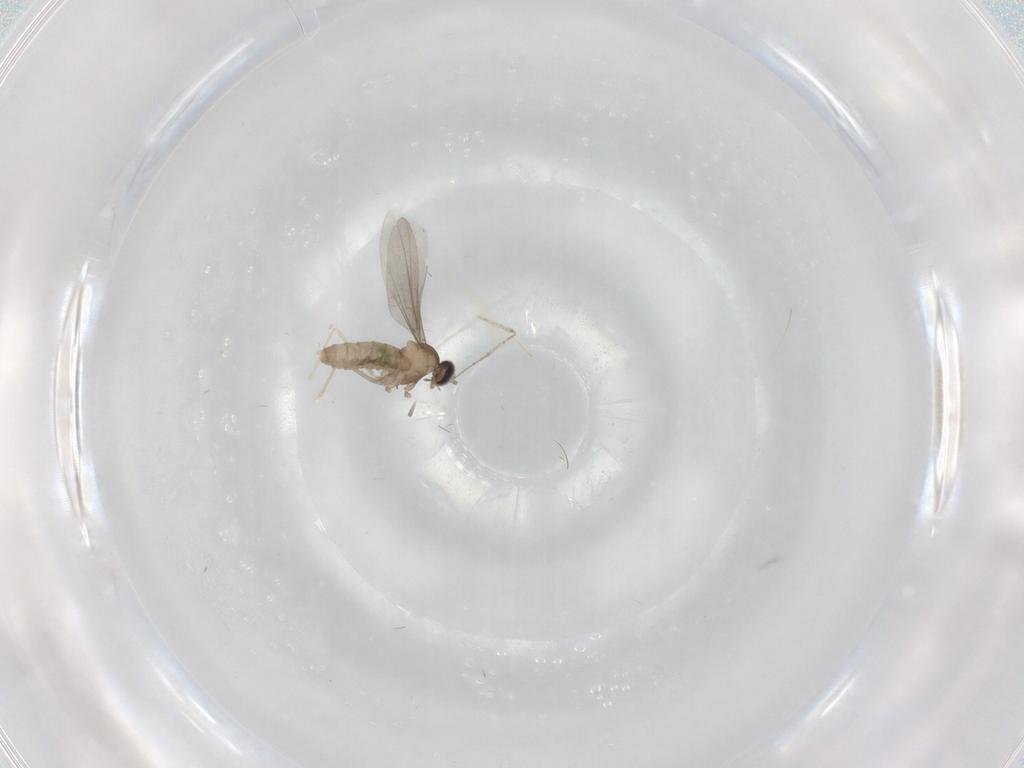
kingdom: Animalia
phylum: Arthropoda
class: Insecta
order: Diptera
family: Cecidomyiidae
